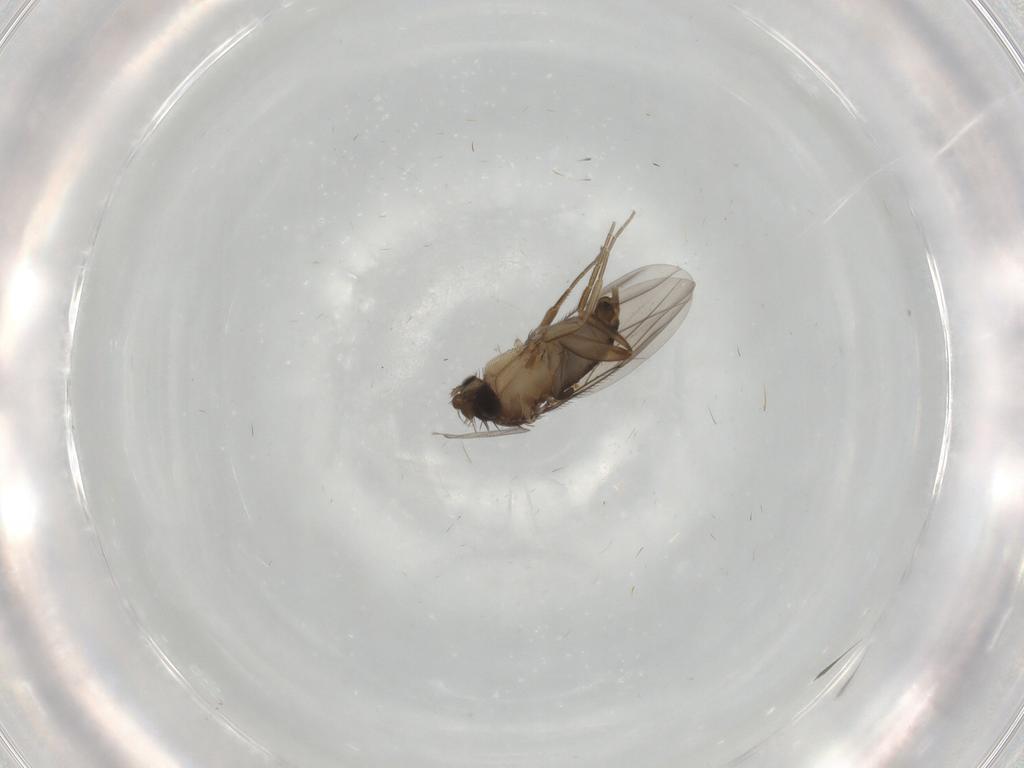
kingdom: Animalia
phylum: Arthropoda
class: Insecta
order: Diptera
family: Phoridae
